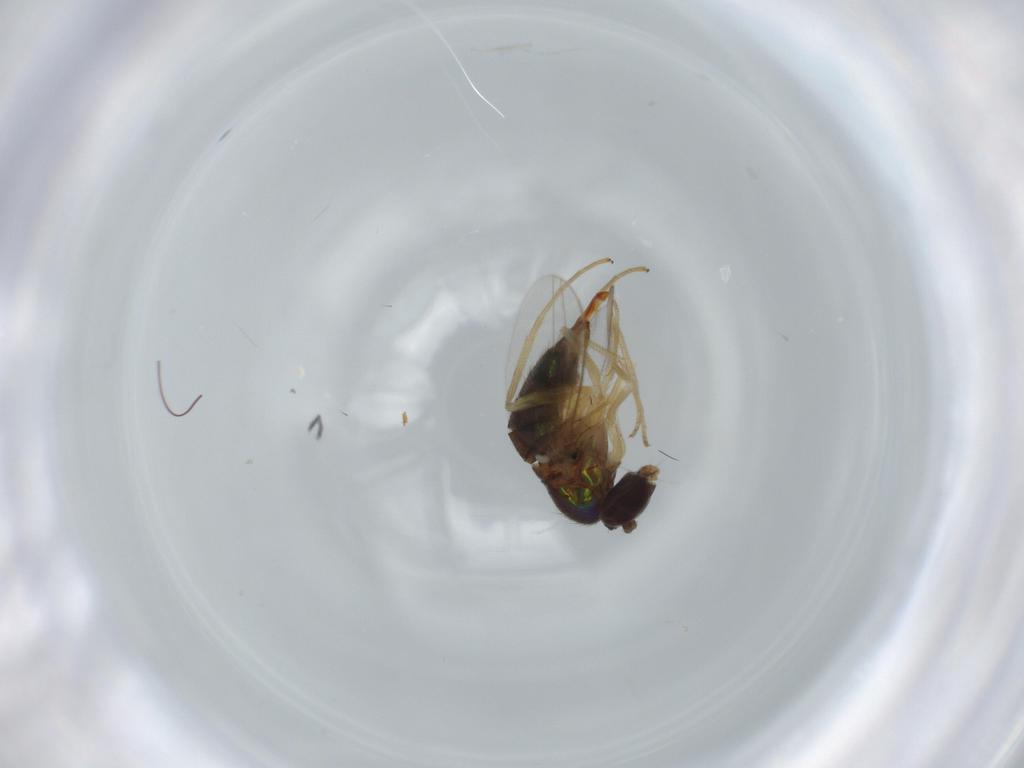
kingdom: Animalia
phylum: Arthropoda
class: Insecta
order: Diptera
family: Dolichopodidae
